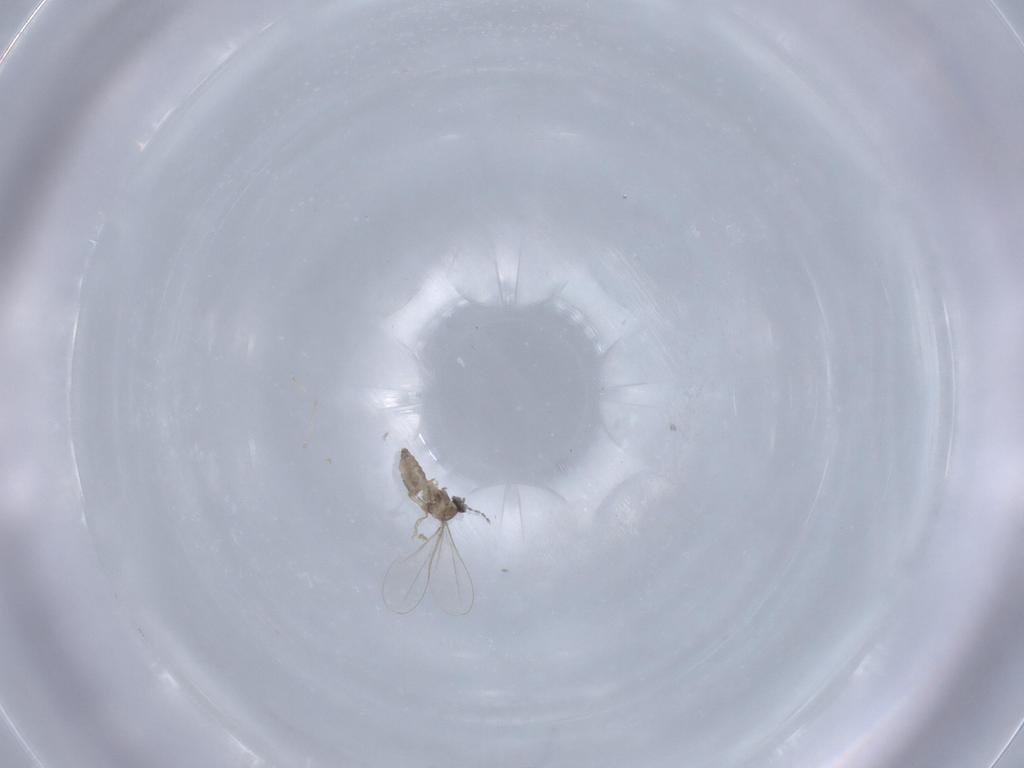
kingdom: Animalia
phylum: Arthropoda
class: Insecta
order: Diptera
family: Cecidomyiidae
